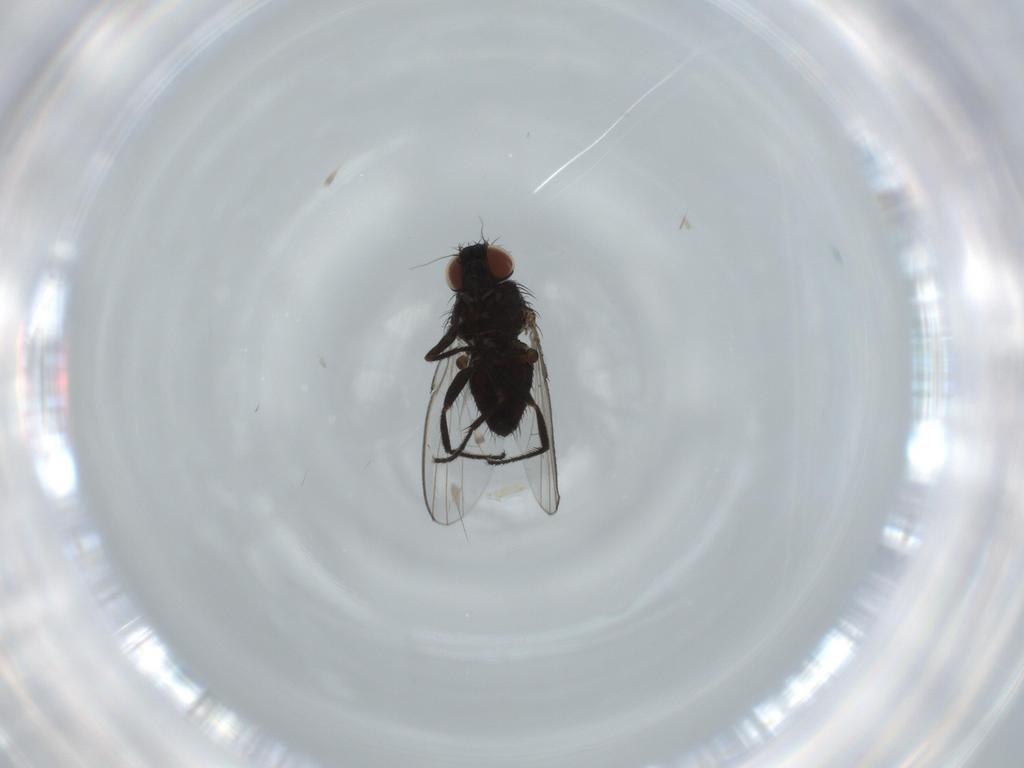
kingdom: Animalia
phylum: Arthropoda
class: Insecta
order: Diptera
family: Milichiidae
